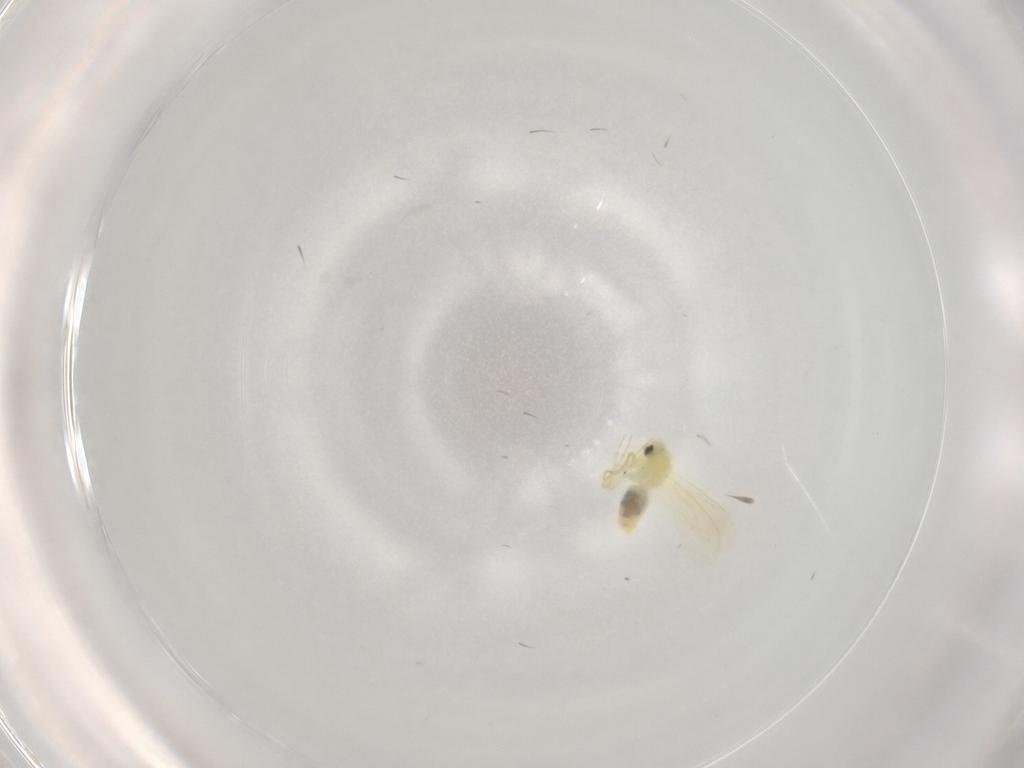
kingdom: Animalia
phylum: Arthropoda
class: Insecta
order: Hemiptera
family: Aleyrodidae
